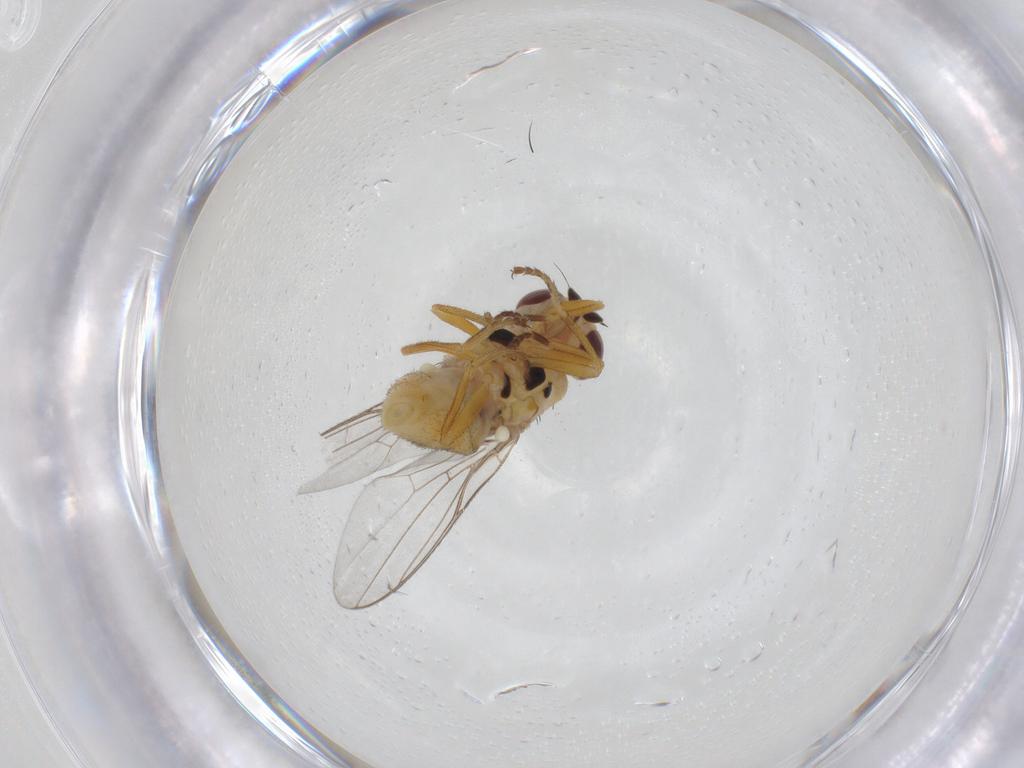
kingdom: Animalia
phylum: Arthropoda
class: Insecta
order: Diptera
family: Chloropidae
